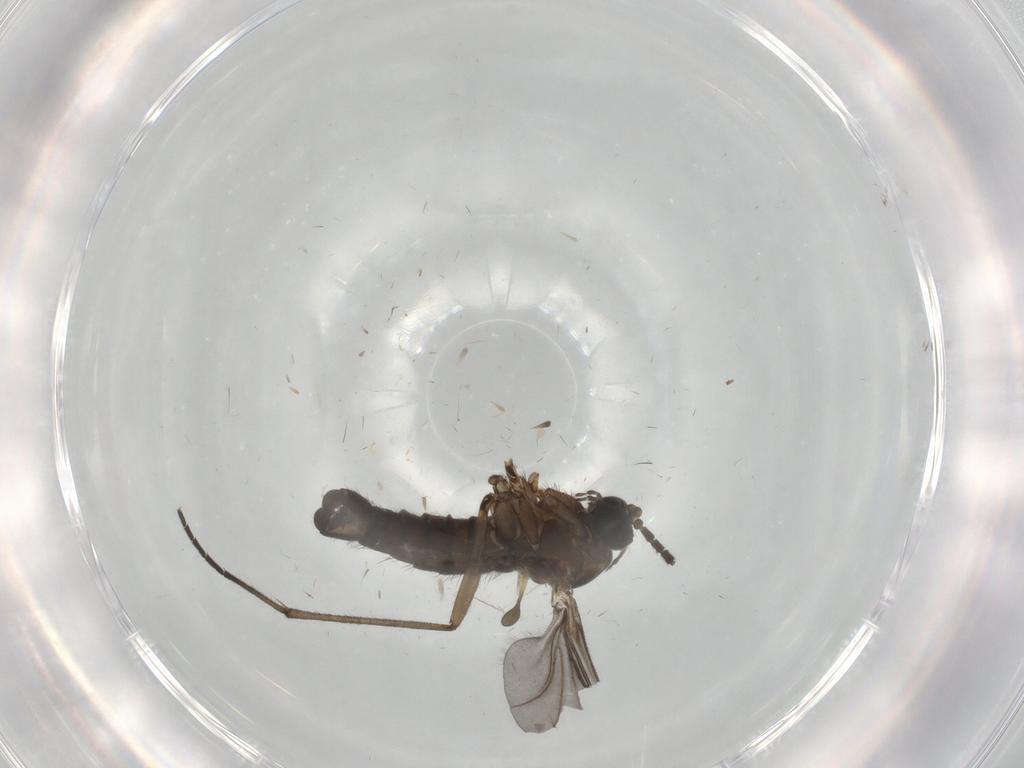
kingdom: Animalia
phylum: Arthropoda
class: Insecta
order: Diptera
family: Sciaridae
